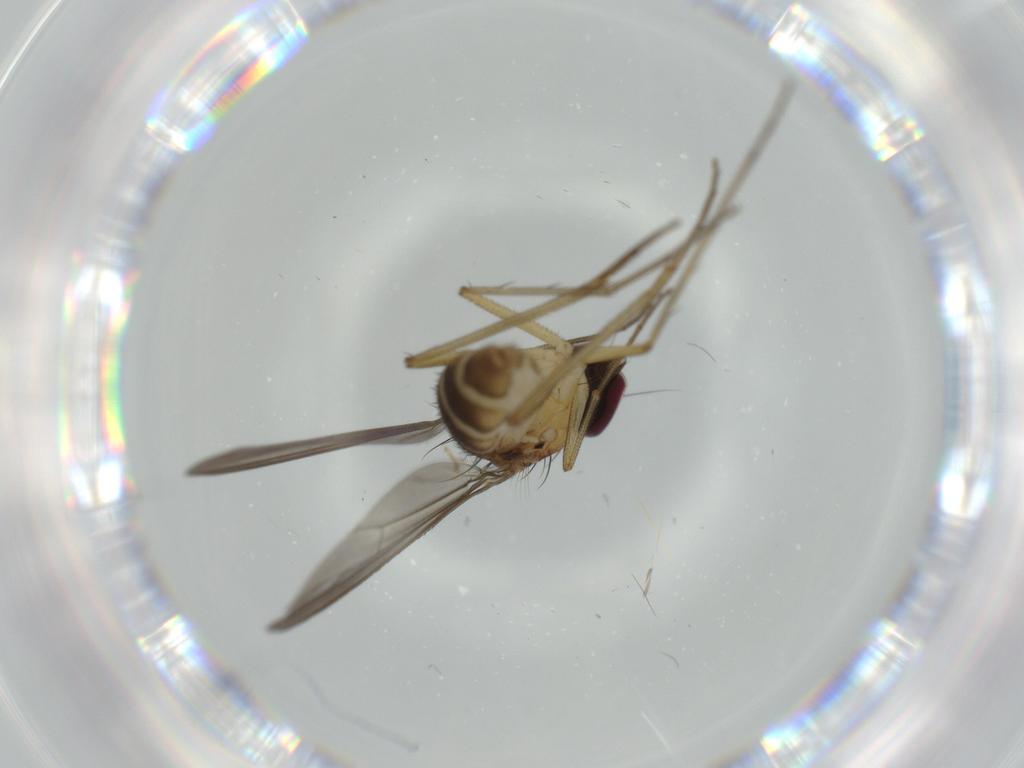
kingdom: Animalia
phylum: Arthropoda
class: Insecta
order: Diptera
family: Dolichopodidae
